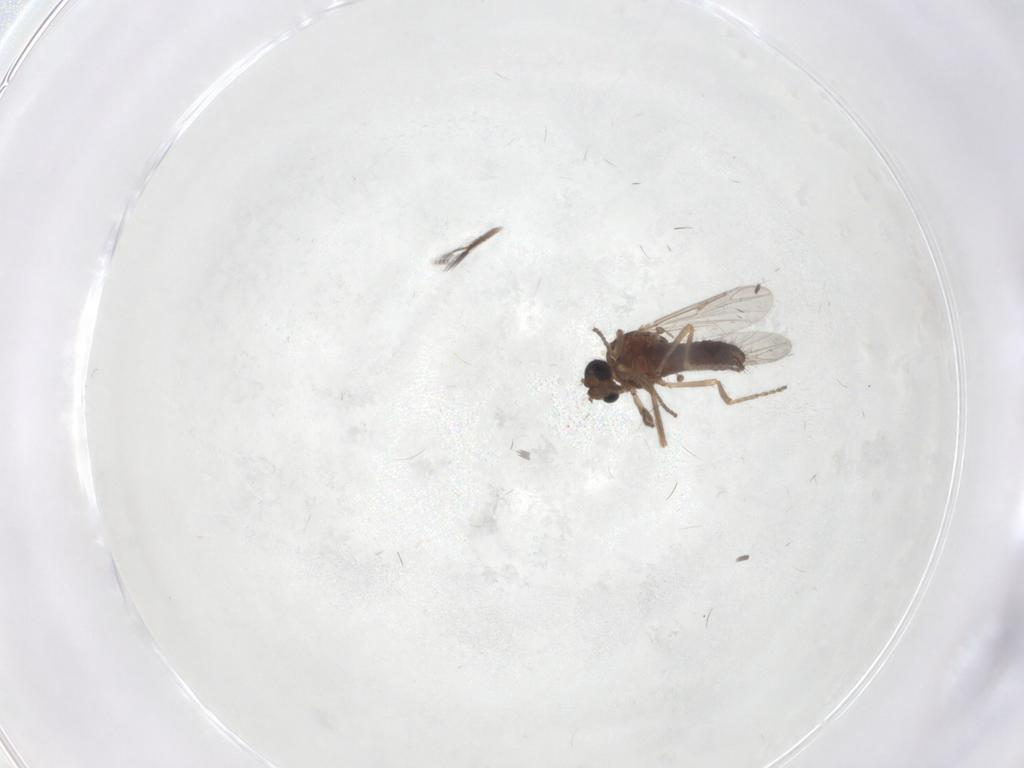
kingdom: Animalia
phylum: Arthropoda
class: Insecta
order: Diptera
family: Ceratopogonidae
